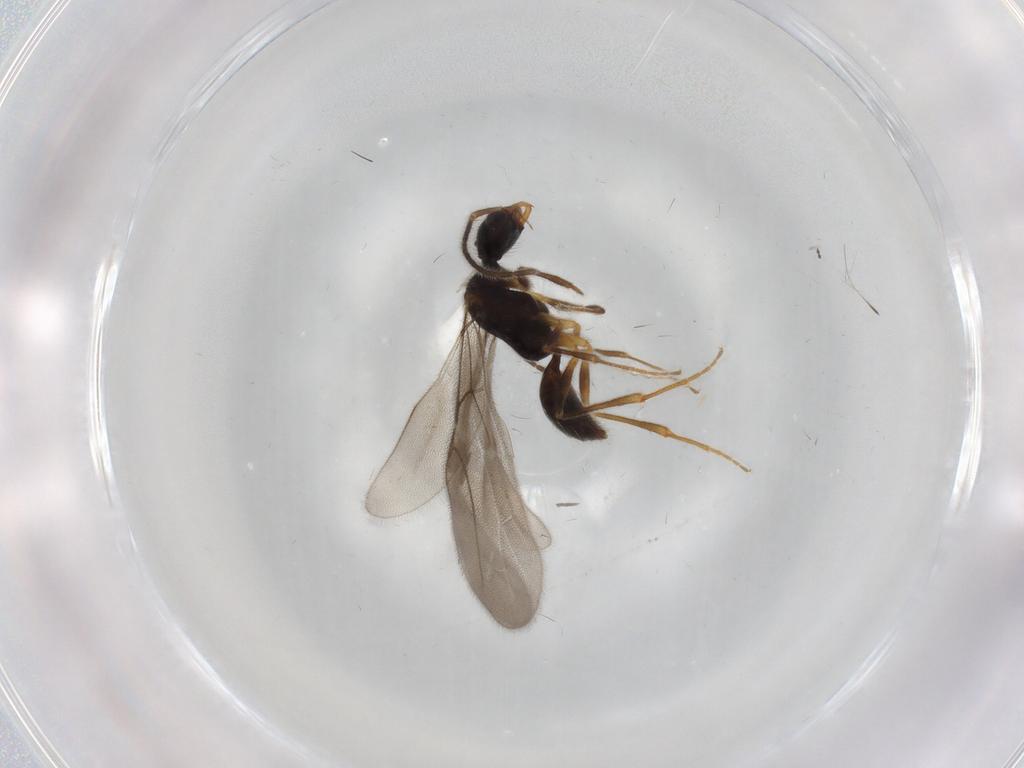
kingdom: Animalia
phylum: Arthropoda
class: Insecta
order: Hymenoptera
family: Bethylidae
